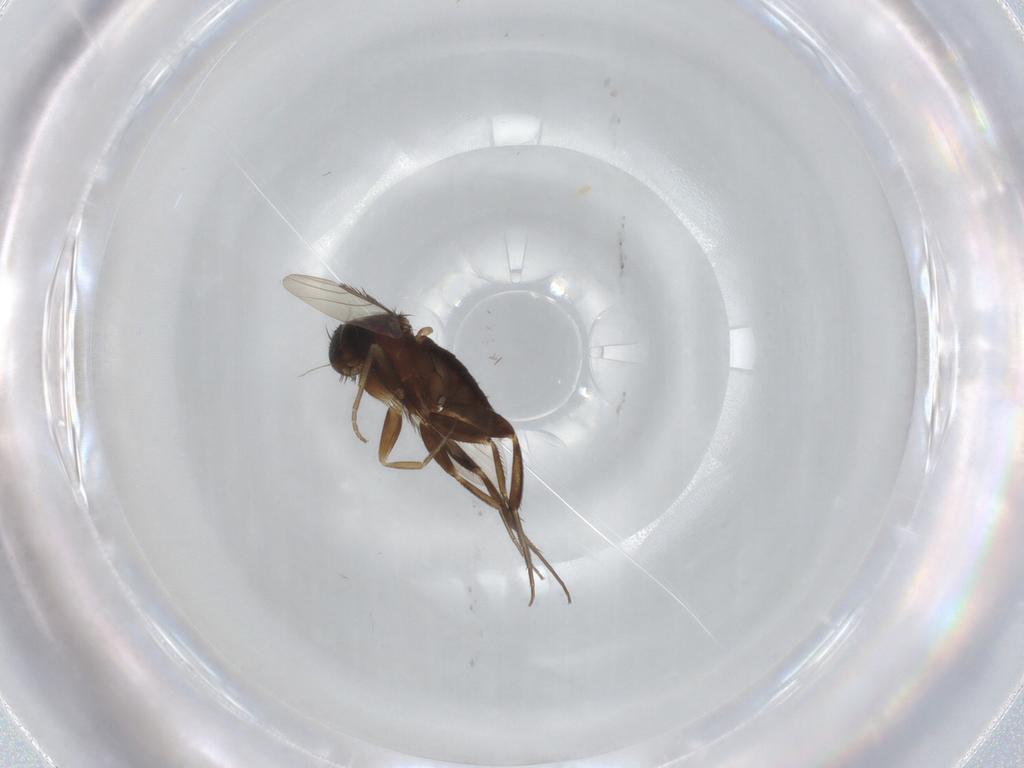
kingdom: Animalia
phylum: Arthropoda
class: Insecta
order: Diptera
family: Phoridae
